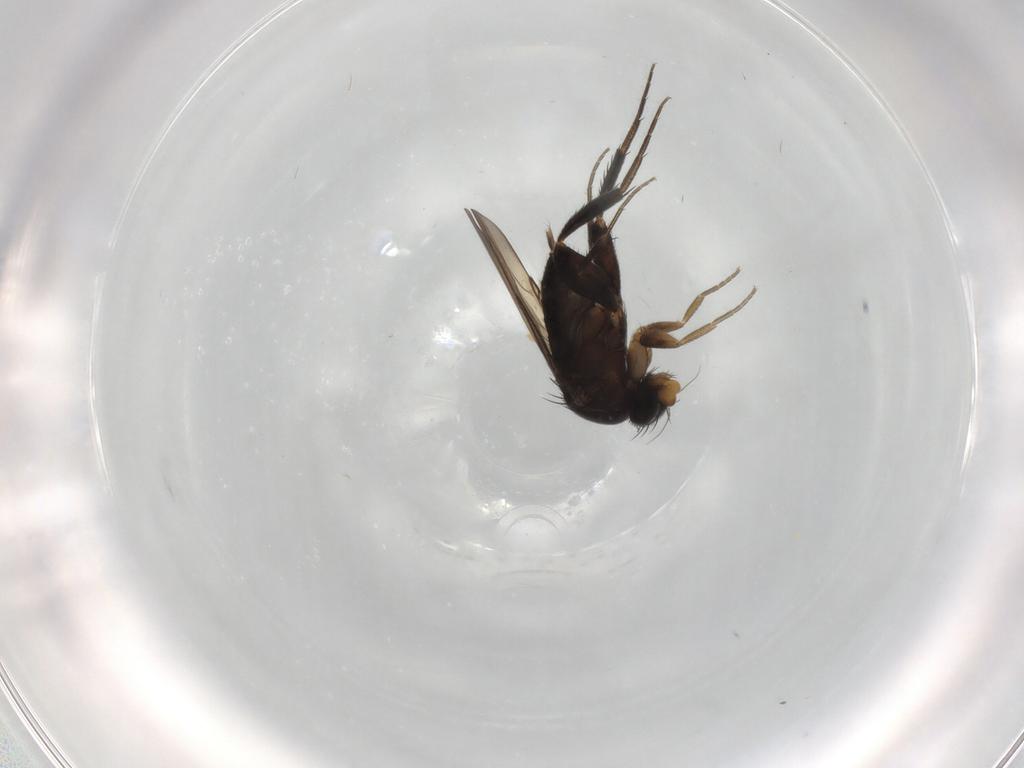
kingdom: Animalia
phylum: Arthropoda
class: Insecta
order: Diptera
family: Phoridae
